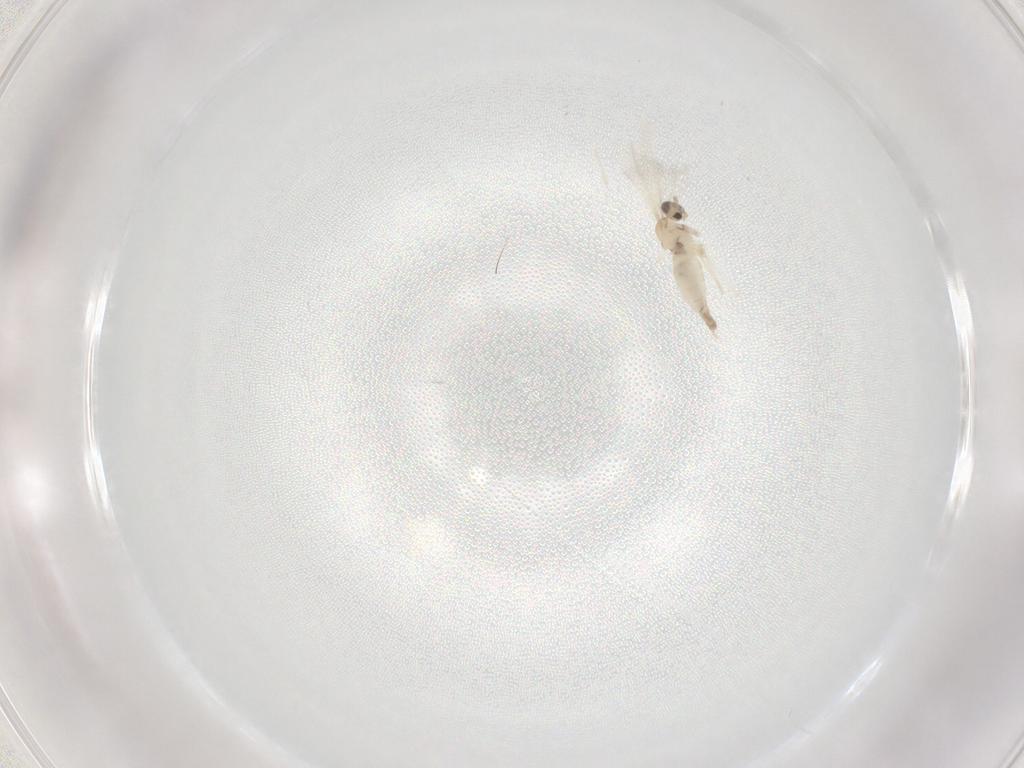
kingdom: Animalia
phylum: Arthropoda
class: Insecta
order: Diptera
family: Cecidomyiidae
